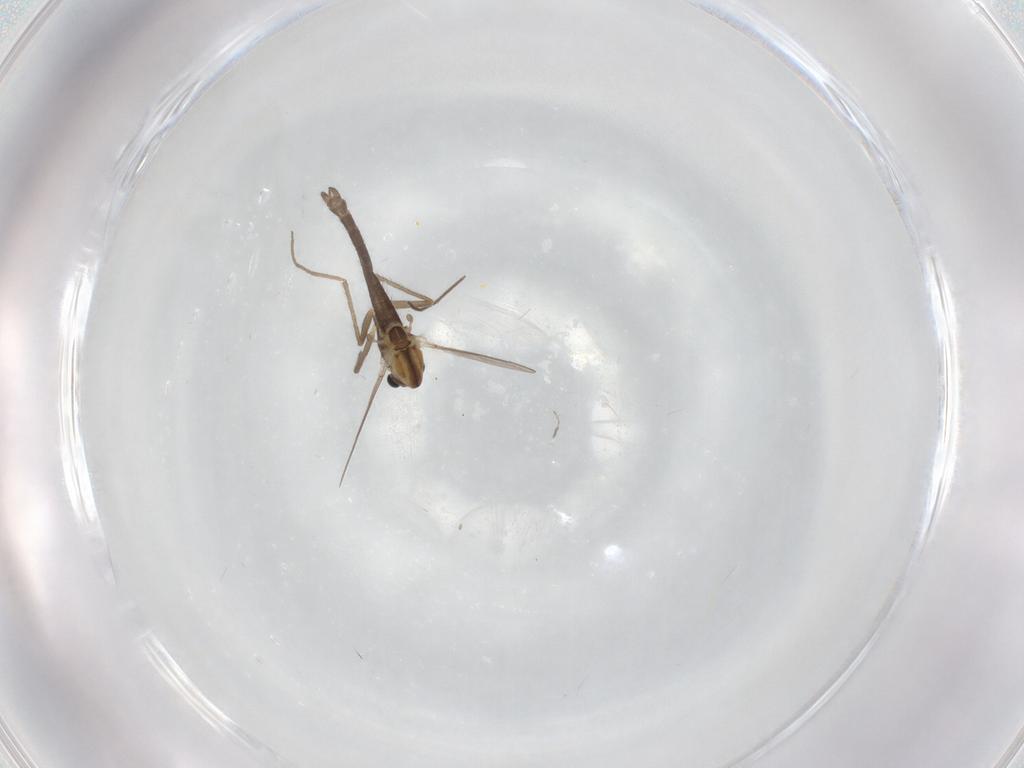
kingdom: Animalia
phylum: Arthropoda
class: Insecta
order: Diptera
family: Chironomidae
